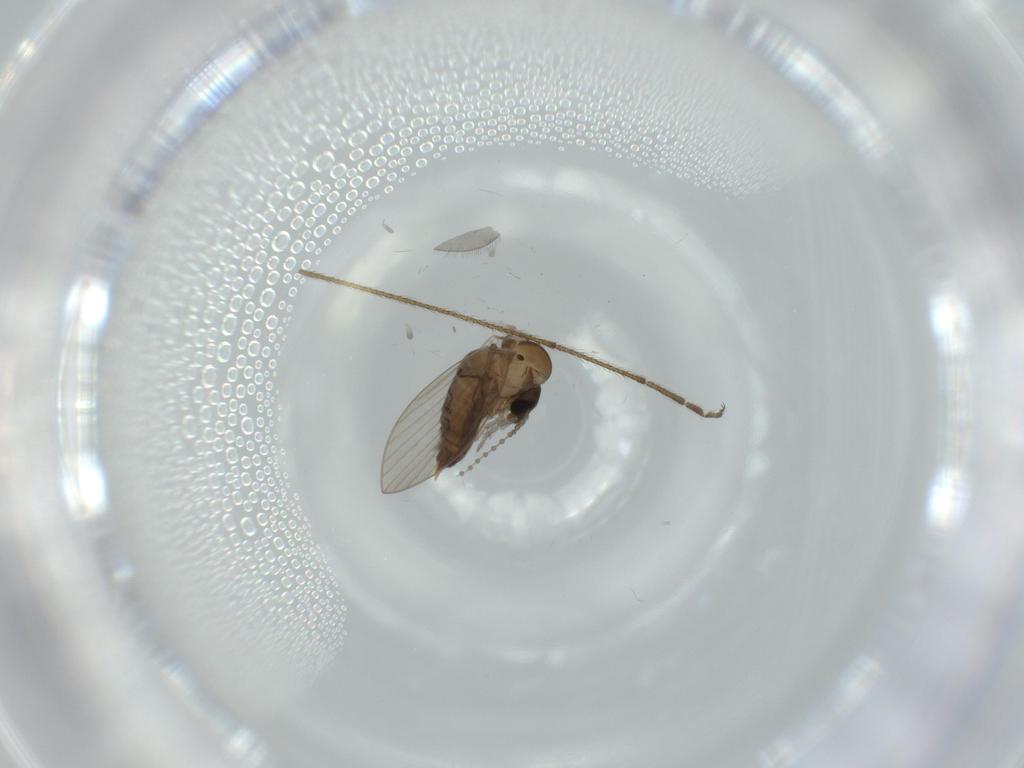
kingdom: Animalia
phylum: Arthropoda
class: Insecta
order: Diptera
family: Psychodidae
